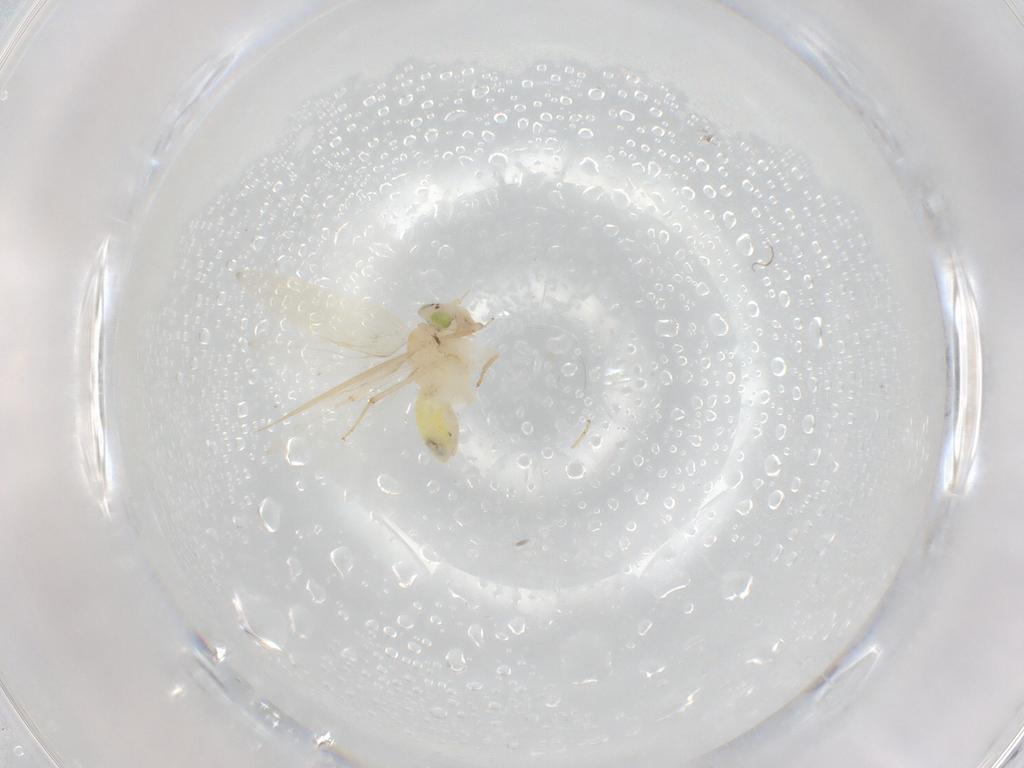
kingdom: Animalia
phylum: Arthropoda
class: Insecta
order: Psocodea
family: Lepidopsocidae
